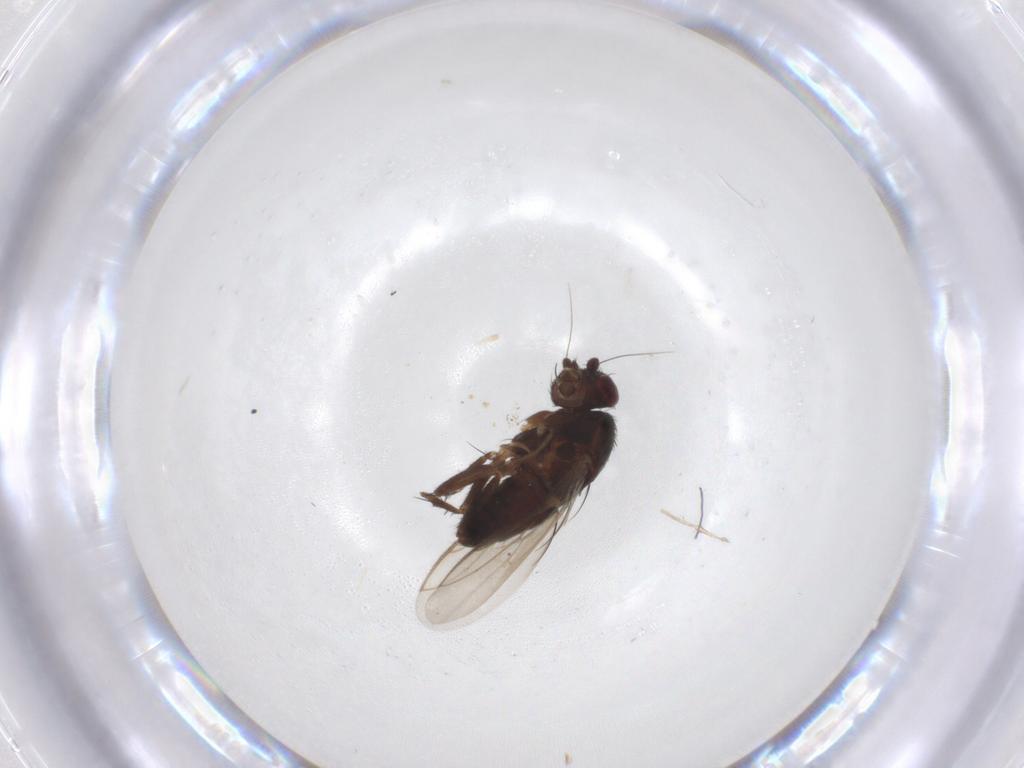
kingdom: Animalia
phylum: Arthropoda
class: Insecta
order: Diptera
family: Sphaeroceridae
